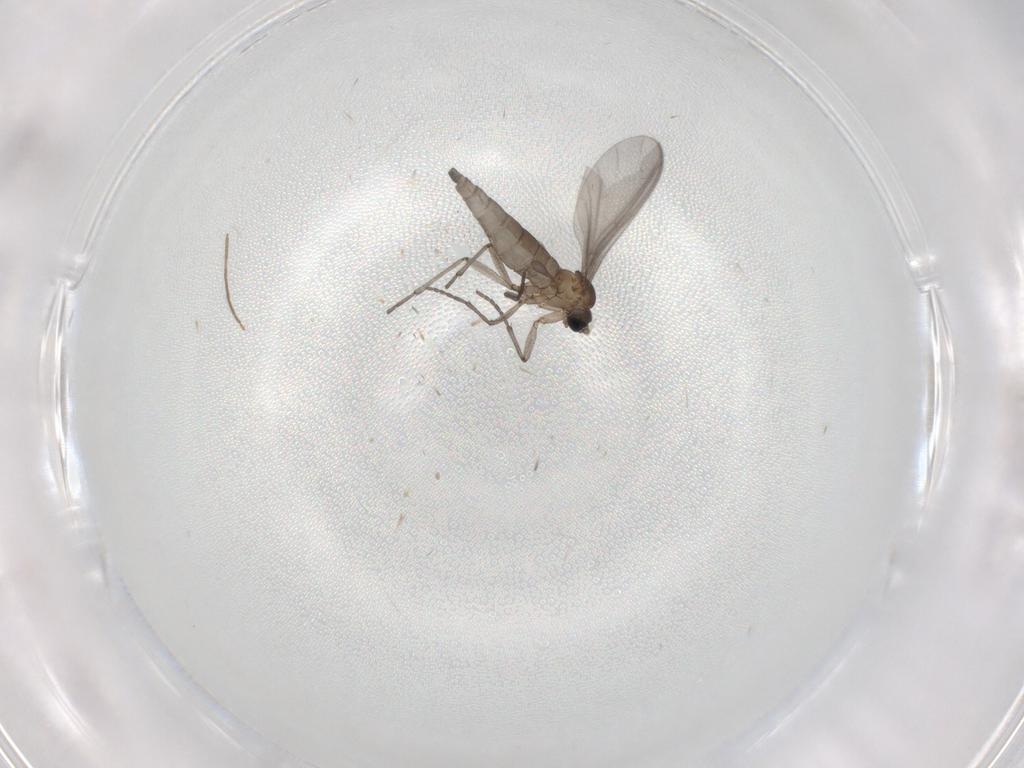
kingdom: Animalia
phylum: Arthropoda
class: Insecta
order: Diptera
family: Sciaridae
